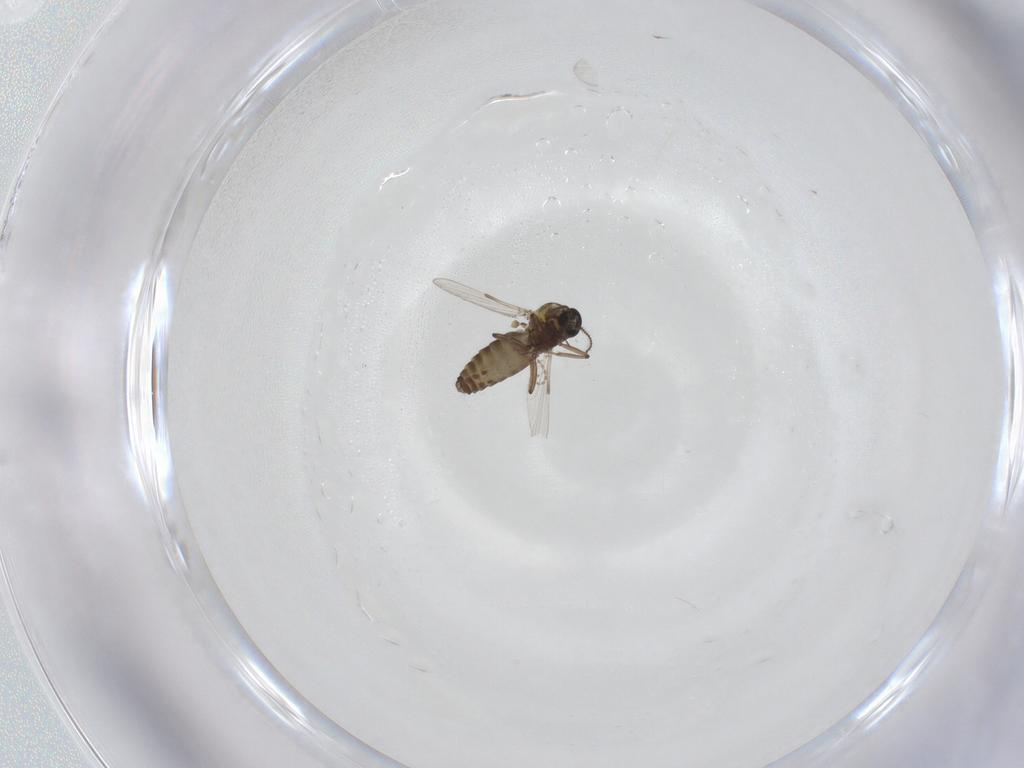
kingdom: Animalia
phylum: Arthropoda
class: Insecta
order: Diptera
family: Ceratopogonidae
